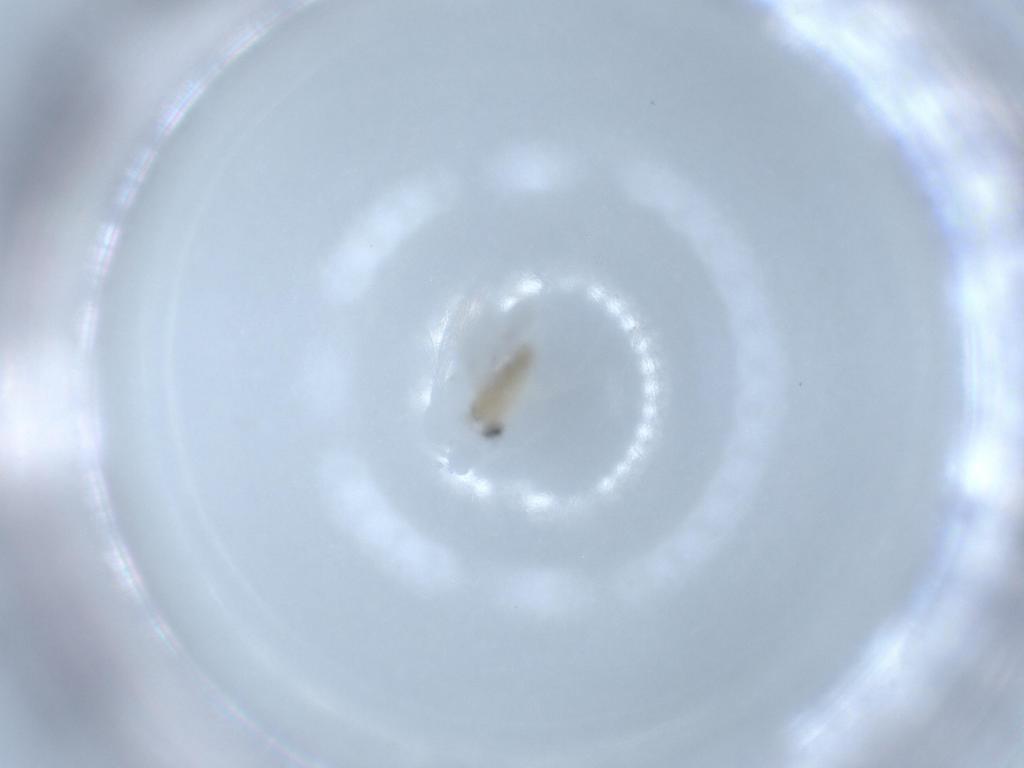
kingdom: Animalia
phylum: Arthropoda
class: Insecta
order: Diptera
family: Cecidomyiidae
